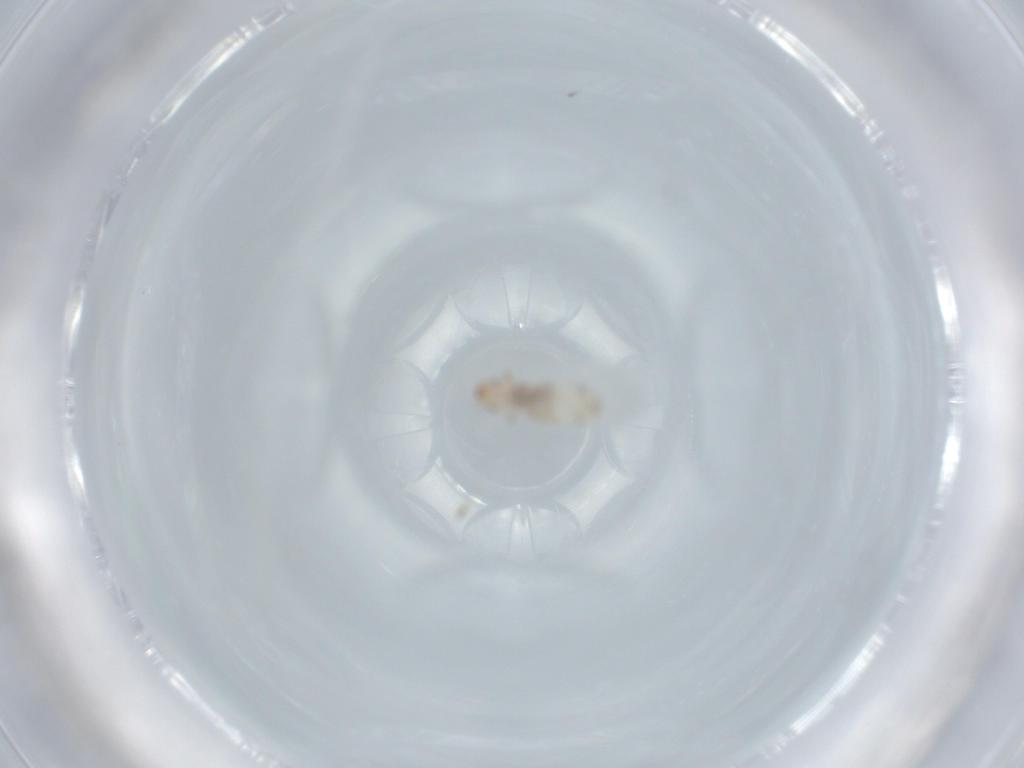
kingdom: Animalia
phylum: Arthropoda
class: Insecta
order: Psocodea
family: Liposcelididae
